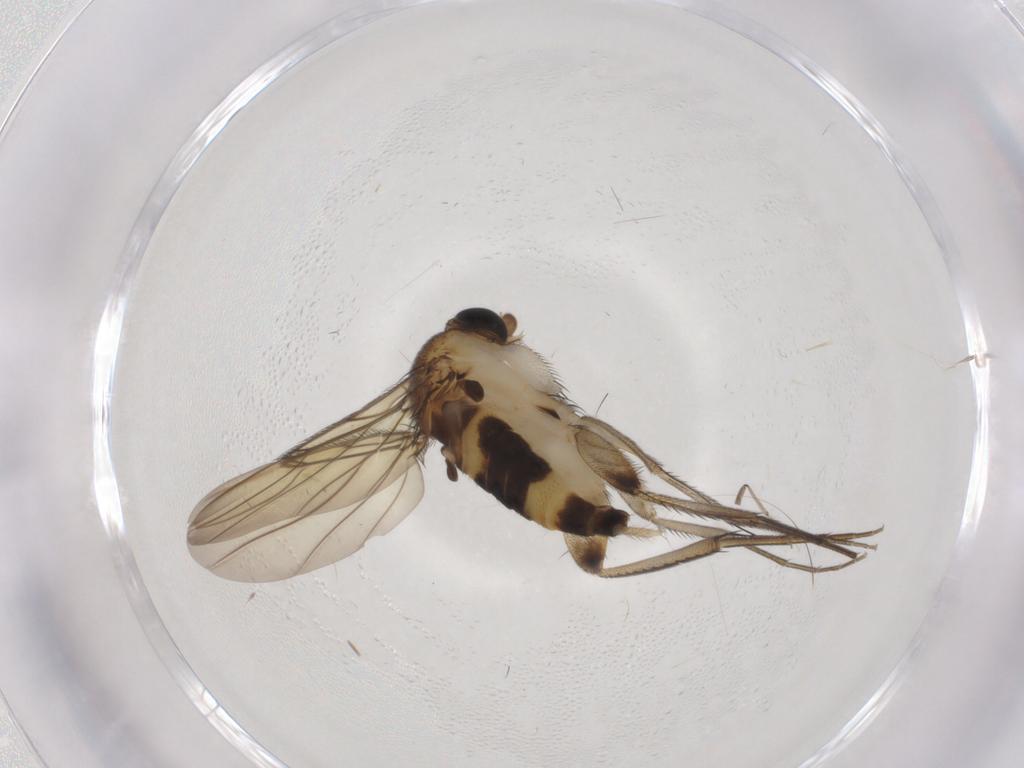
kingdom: Animalia
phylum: Arthropoda
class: Insecta
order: Diptera
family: Phoridae
